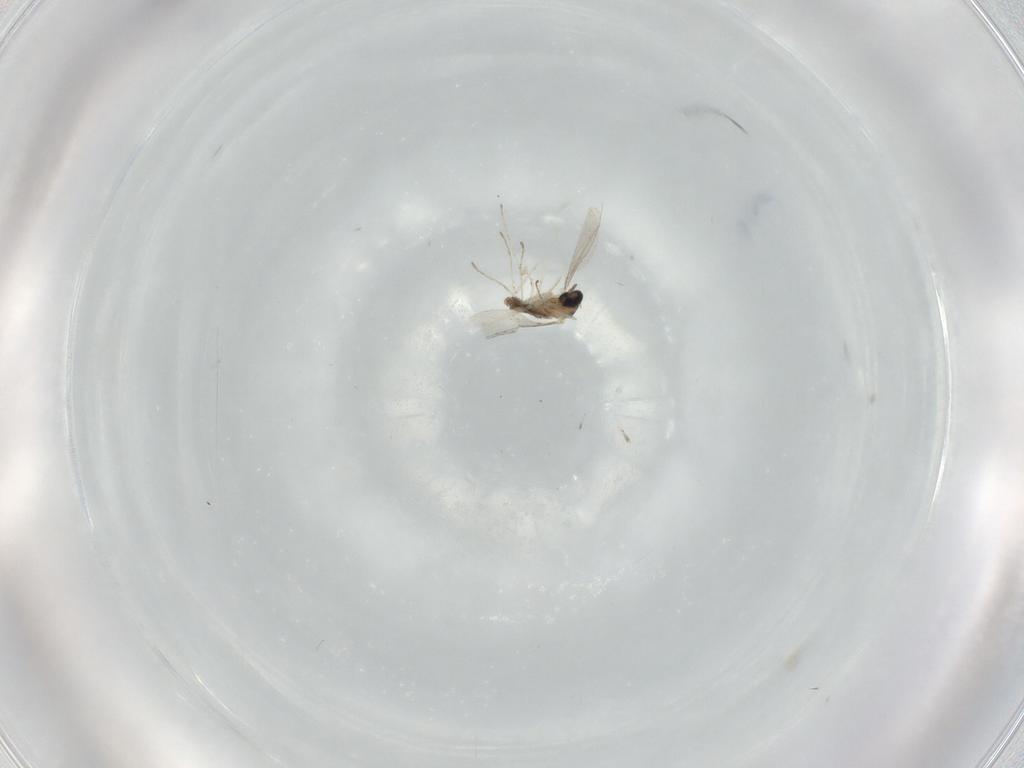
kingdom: Animalia
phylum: Arthropoda
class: Insecta
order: Diptera
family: Cecidomyiidae
